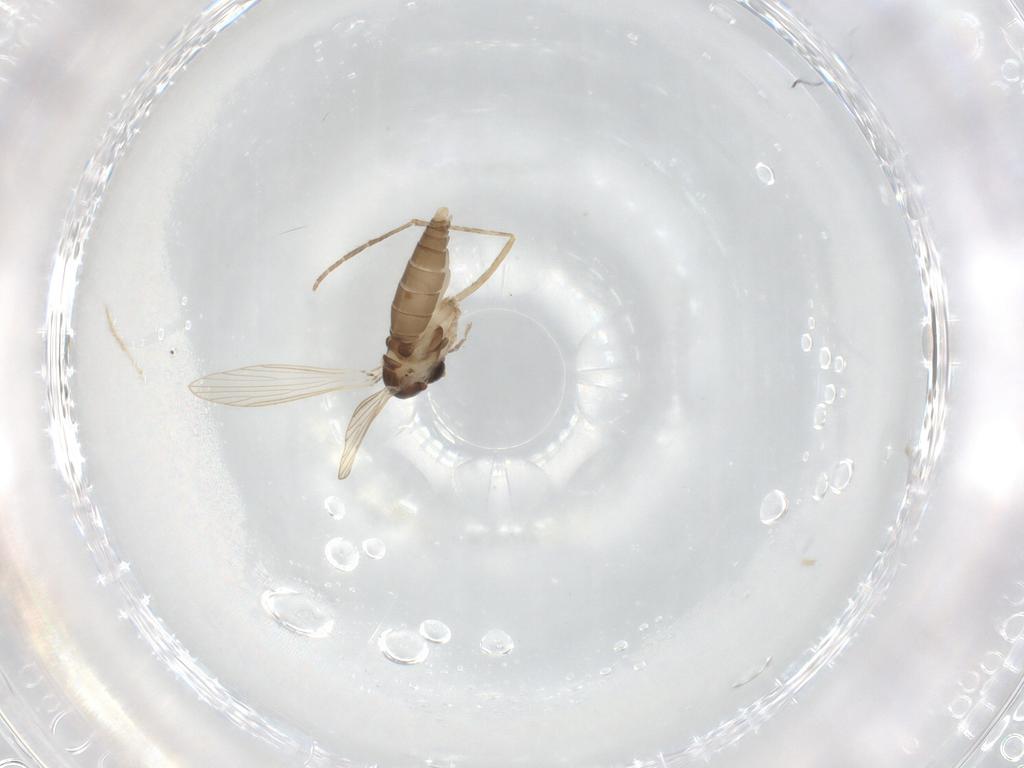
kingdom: Animalia
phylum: Arthropoda
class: Insecta
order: Diptera
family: Psychodidae
